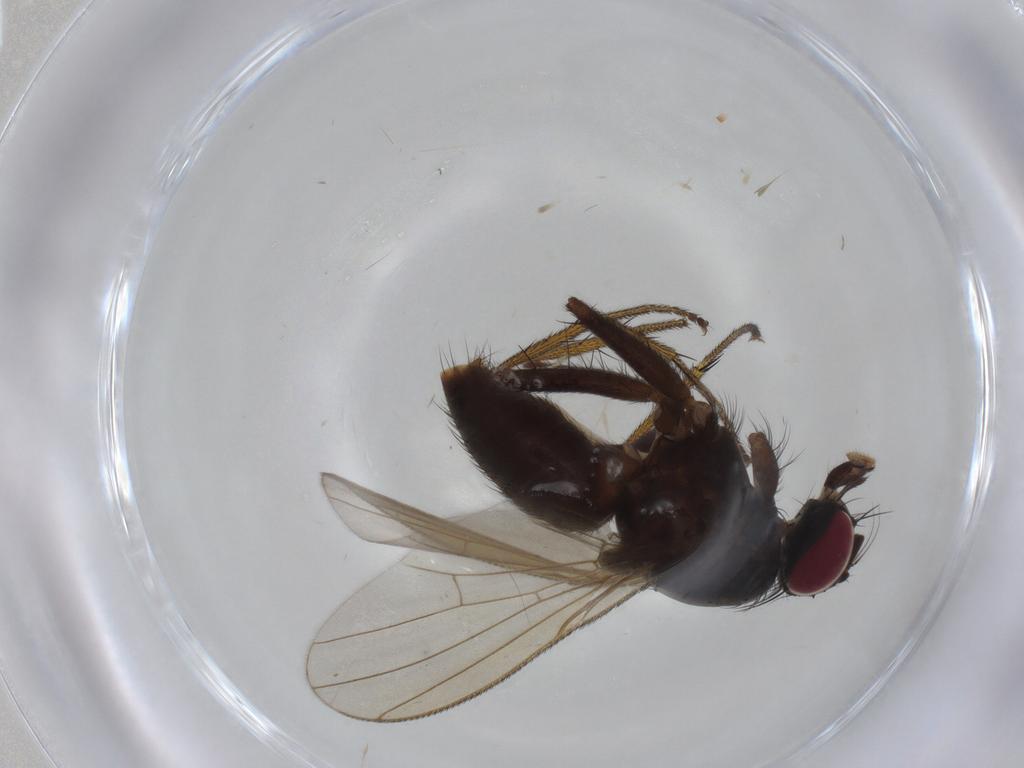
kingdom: Animalia
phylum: Arthropoda
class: Insecta
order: Diptera
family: Muscidae
